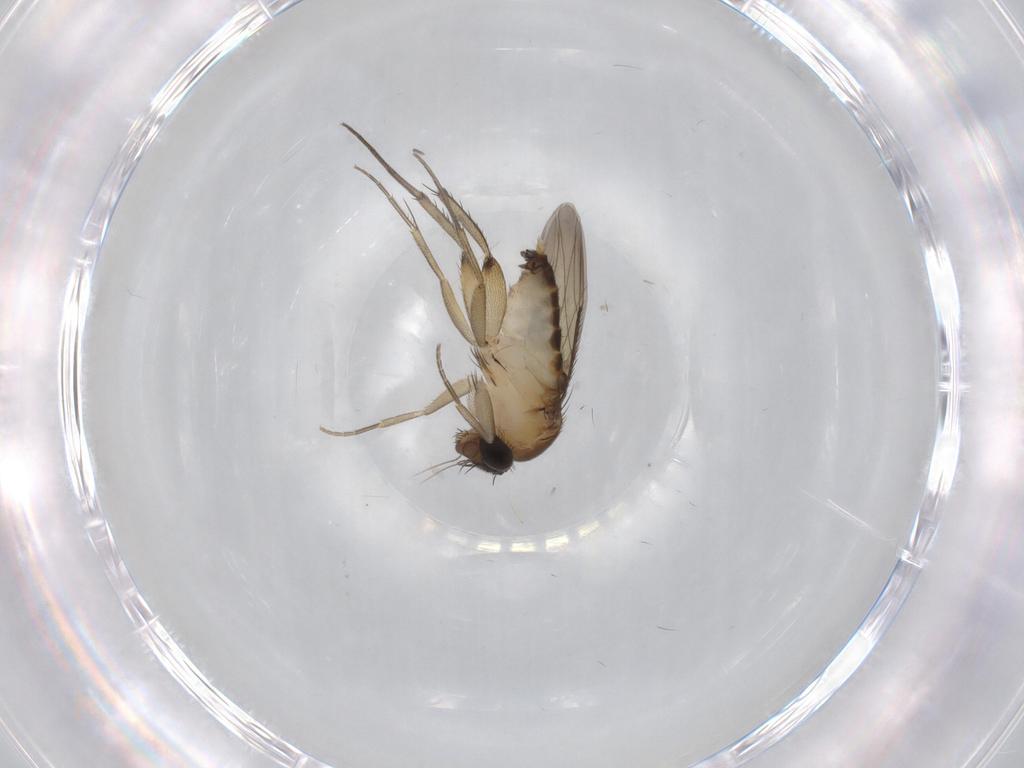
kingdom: Animalia
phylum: Arthropoda
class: Insecta
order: Diptera
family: Phoridae
